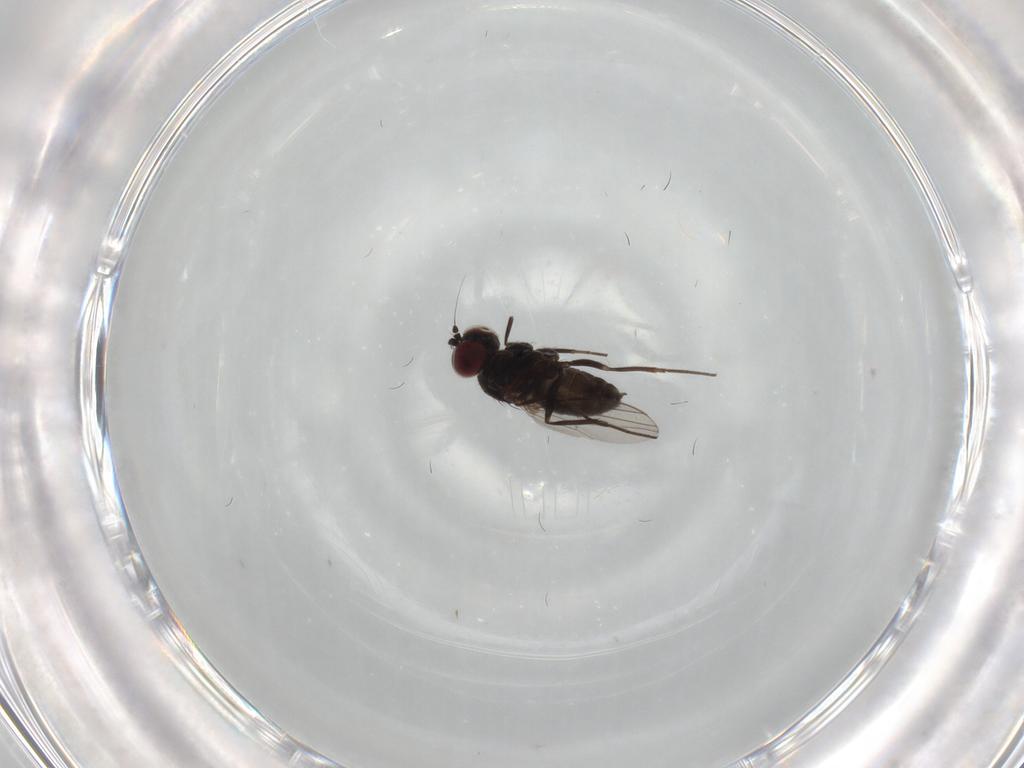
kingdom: Animalia
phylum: Arthropoda
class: Insecta
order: Diptera
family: Dolichopodidae
